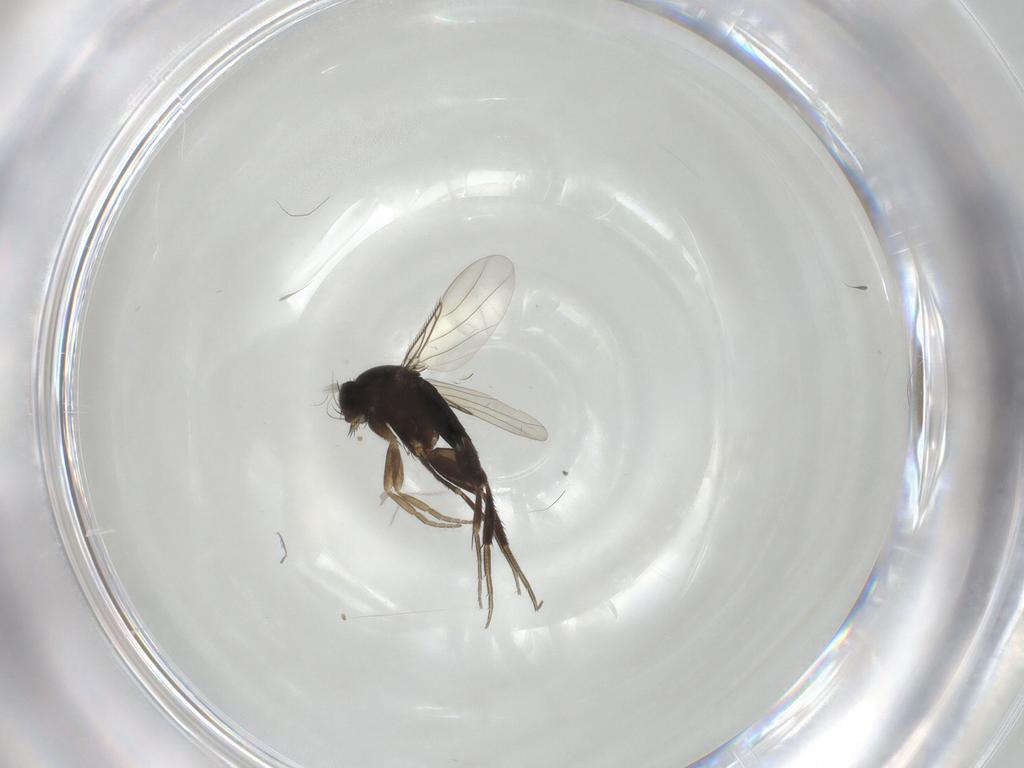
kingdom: Animalia
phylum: Arthropoda
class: Insecta
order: Diptera
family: Cecidomyiidae
